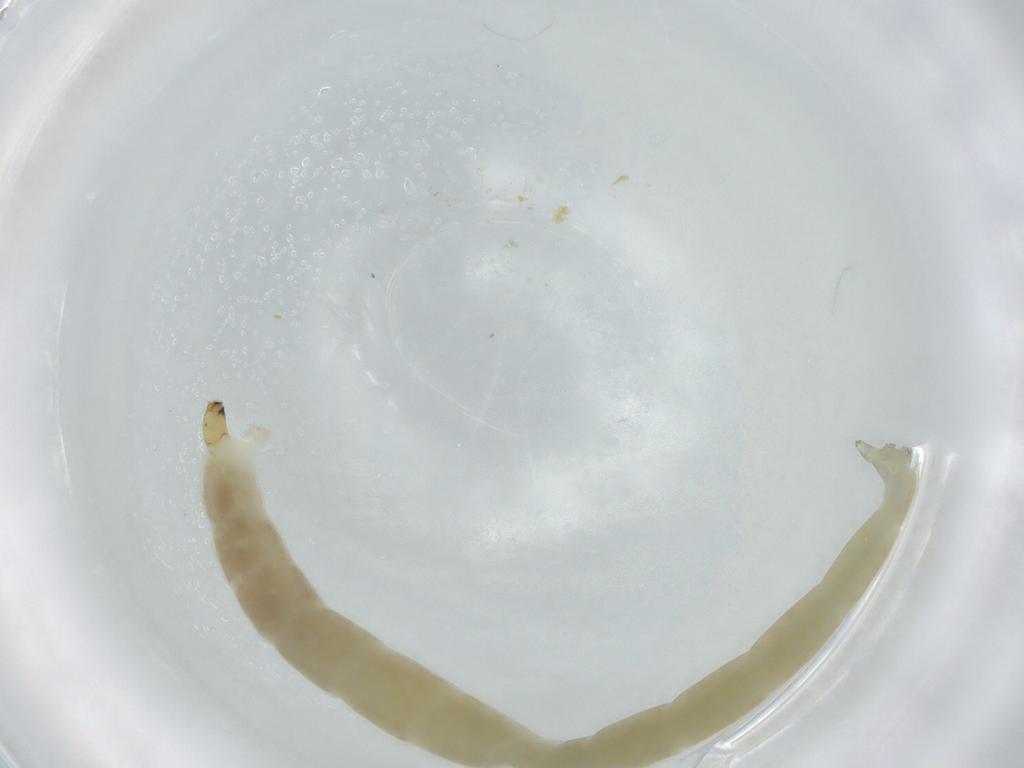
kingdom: Animalia
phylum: Arthropoda
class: Insecta
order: Diptera
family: Chironomidae
